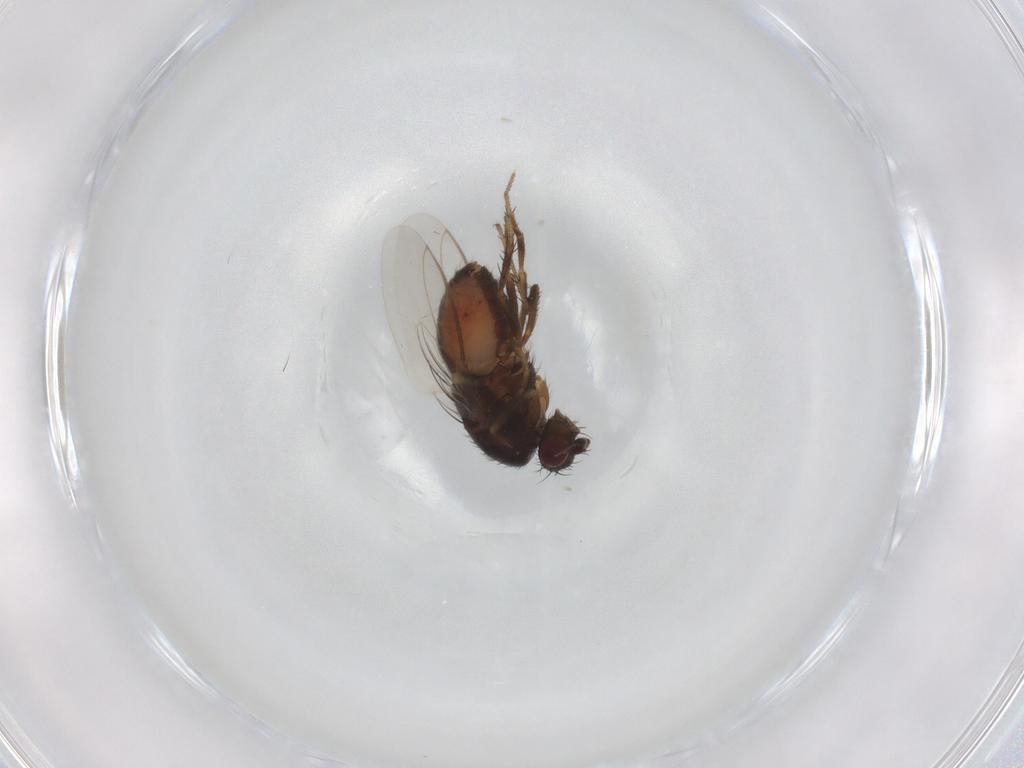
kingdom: Animalia
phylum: Arthropoda
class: Insecta
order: Diptera
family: Sphaeroceridae
